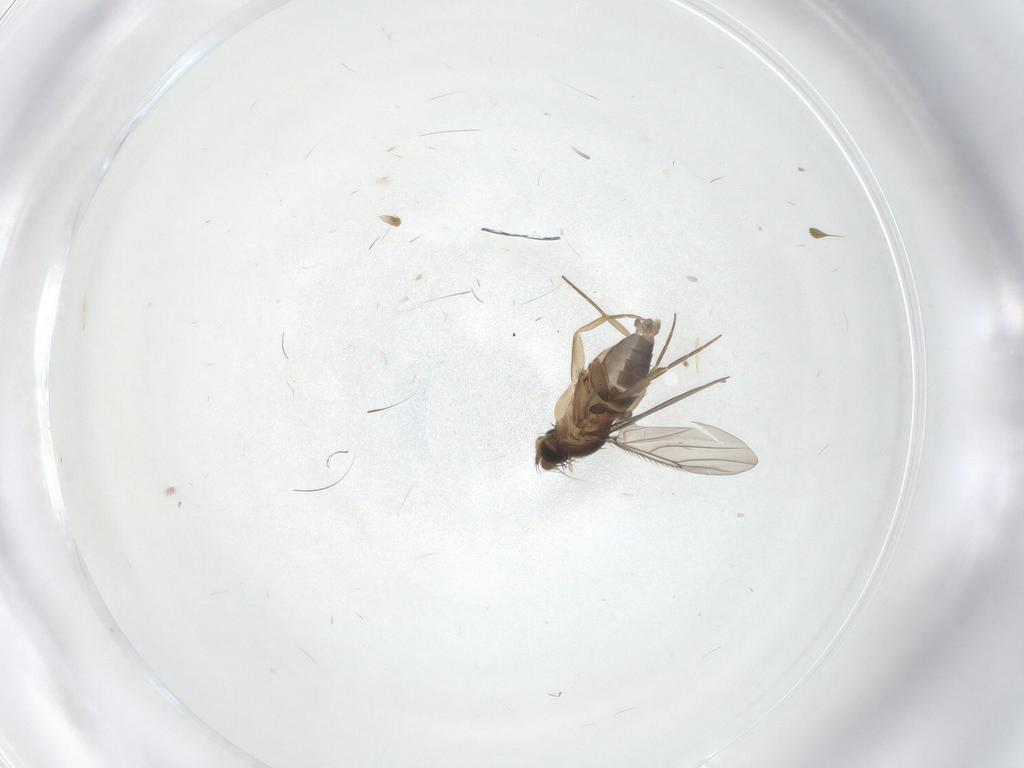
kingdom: Animalia
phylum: Arthropoda
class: Insecta
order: Diptera
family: Phoridae
